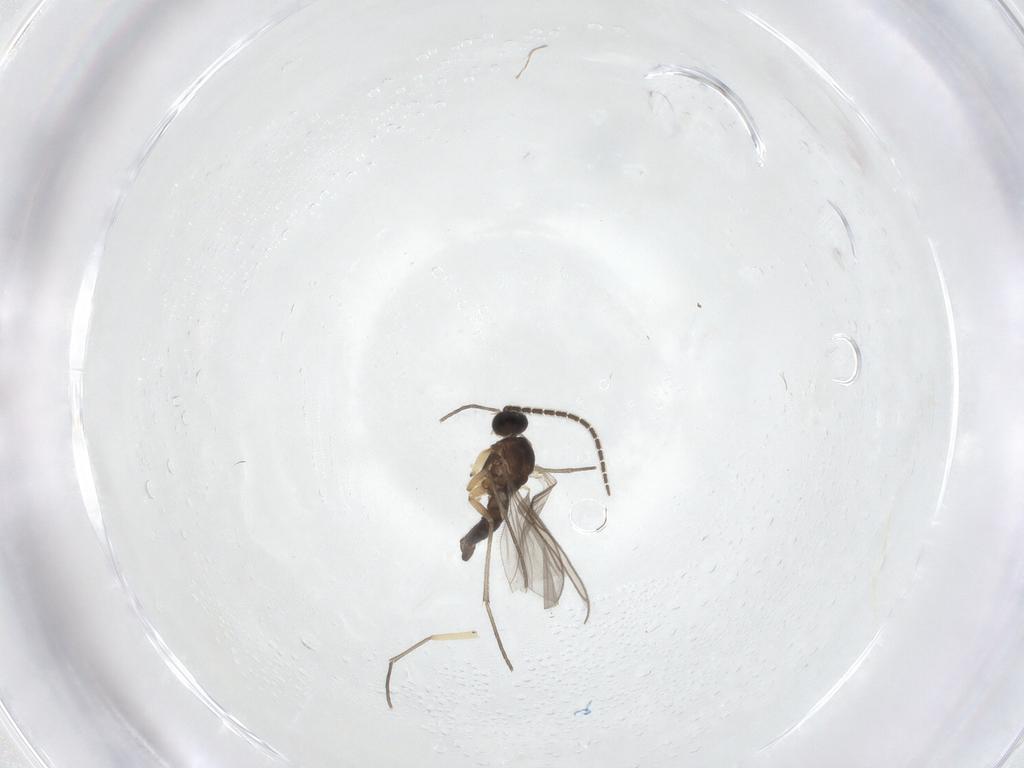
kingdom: Animalia
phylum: Arthropoda
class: Insecta
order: Diptera
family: Sciaridae
